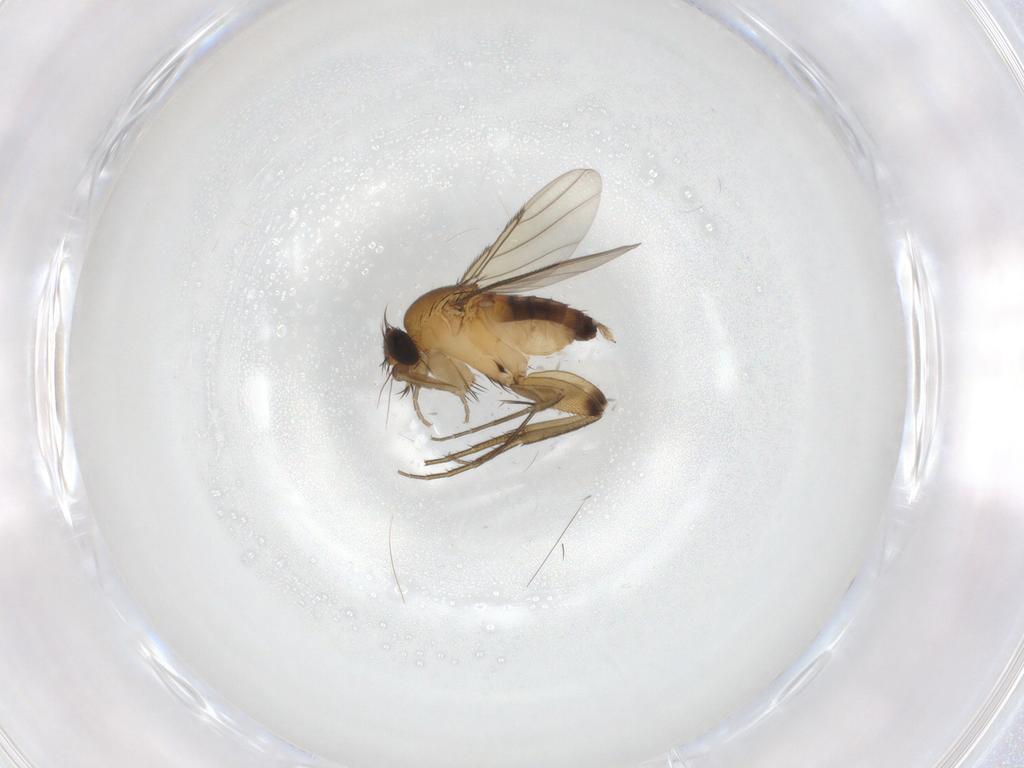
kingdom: Animalia
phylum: Arthropoda
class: Insecta
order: Diptera
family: Phoridae
